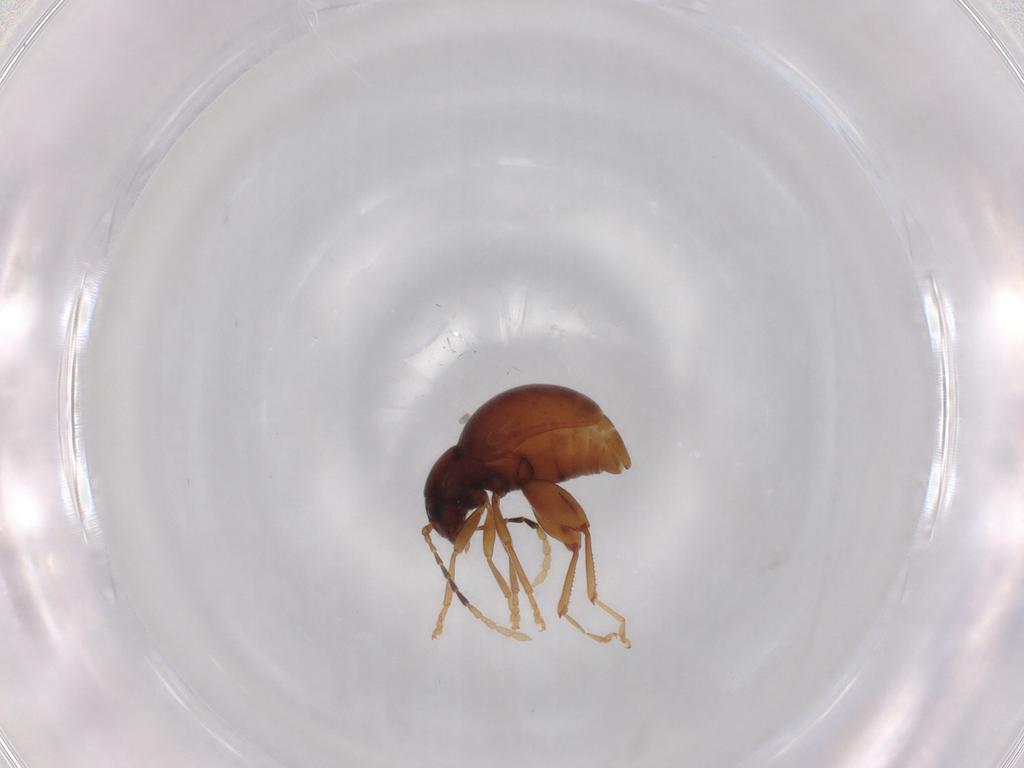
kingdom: Animalia
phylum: Arthropoda
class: Insecta
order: Coleoptera
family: Chrysomelidae
